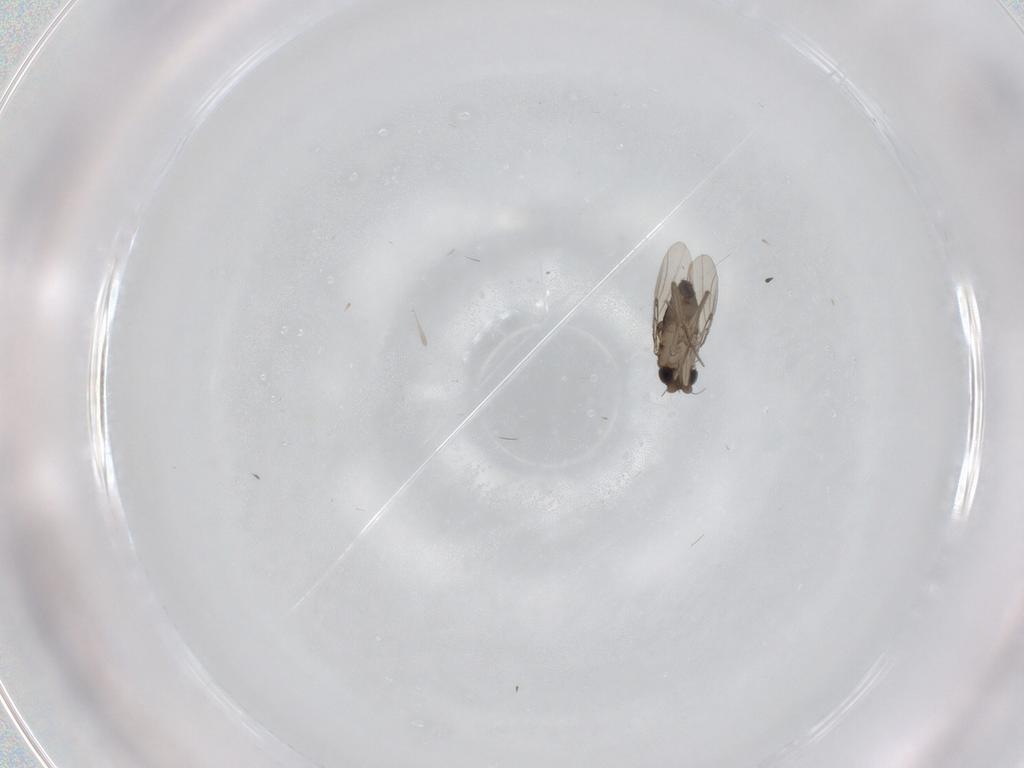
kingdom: Animalia
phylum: Arthropoda
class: Insecta
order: Diptera
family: Phoridae
